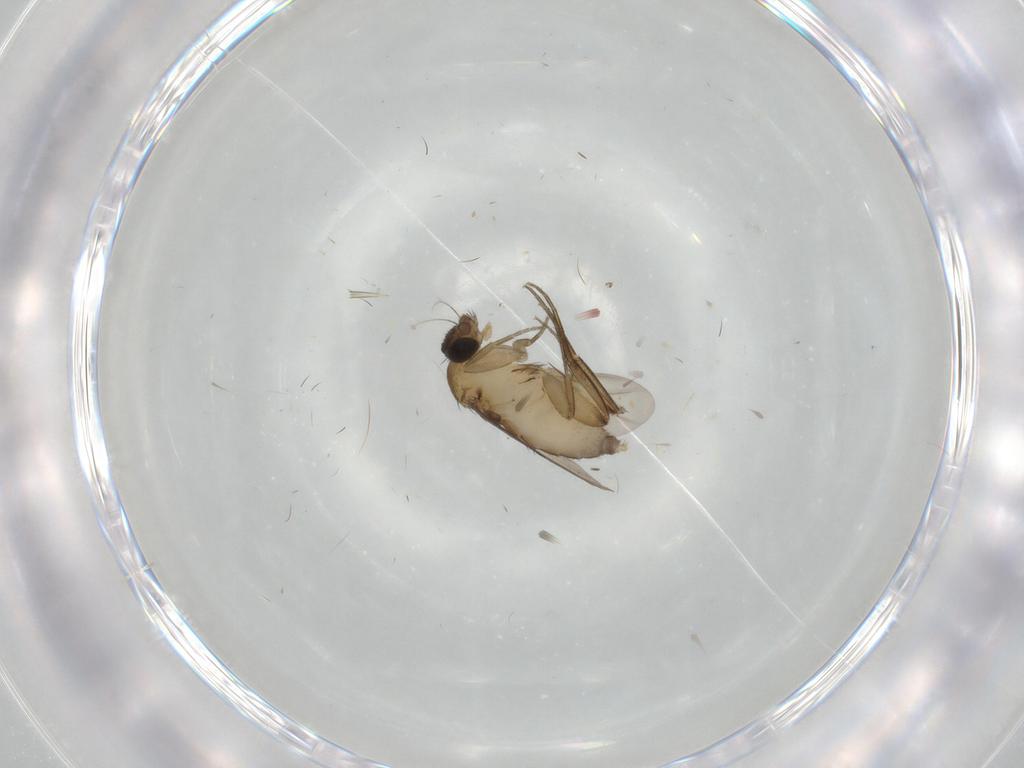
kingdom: Animalia
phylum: Arthropoda
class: Insecta
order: Diptera
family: Phoridae
